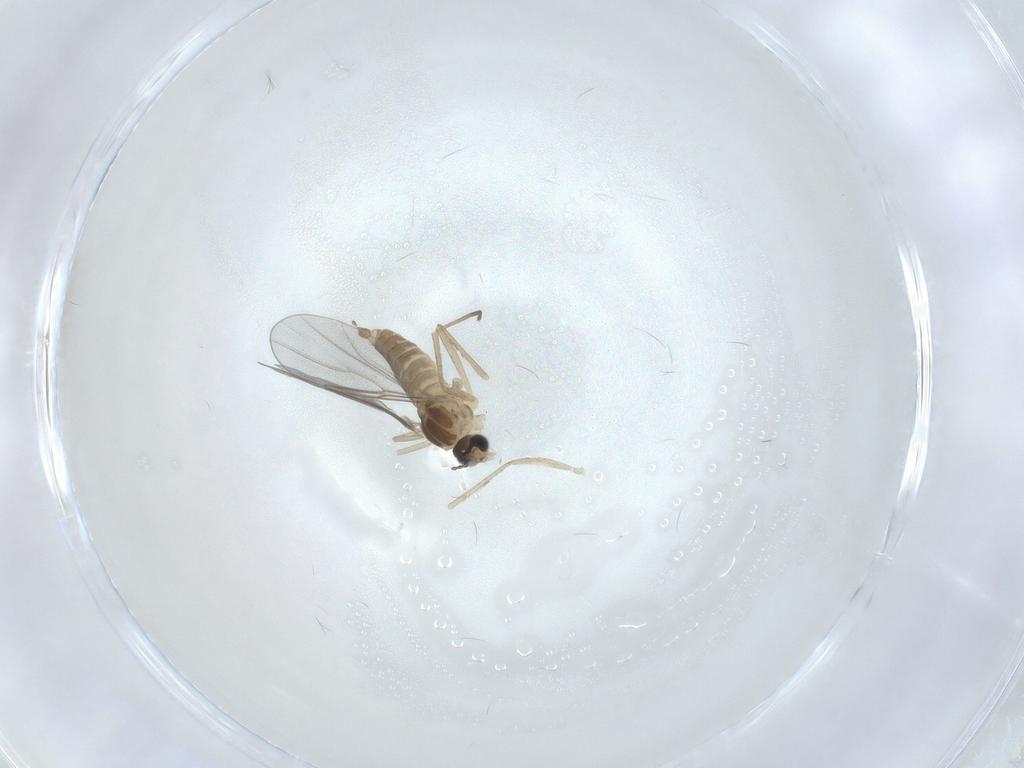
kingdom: Animalia
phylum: Arthropoda
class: Insecta
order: Diptera
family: Cecidomyiidae
